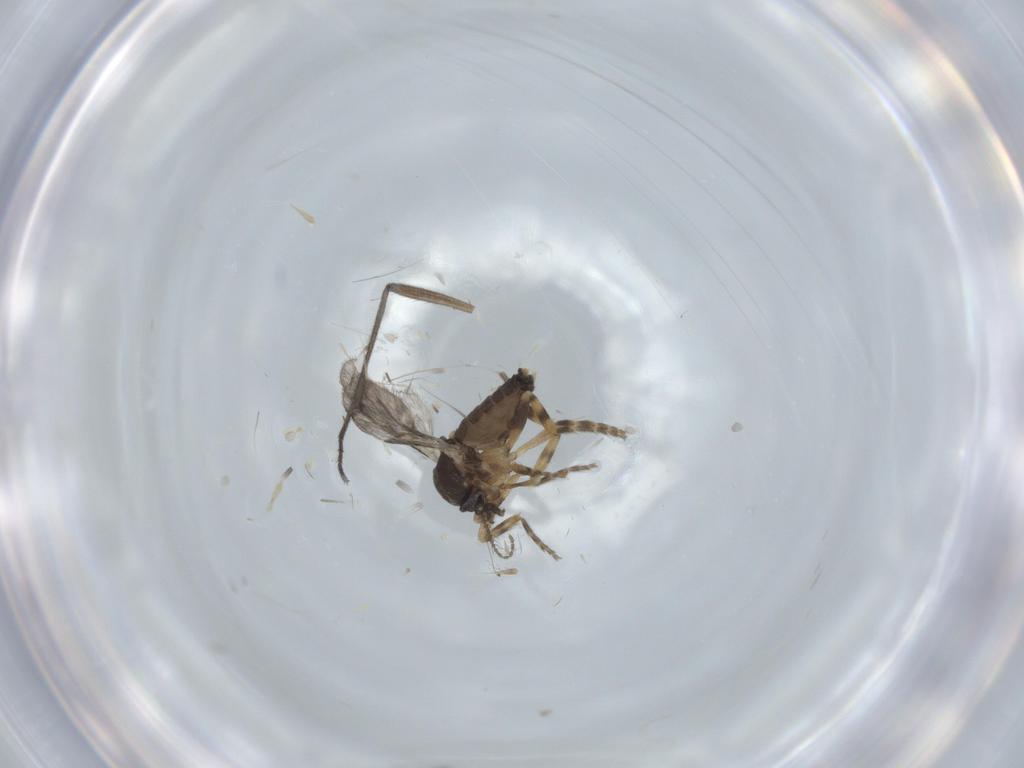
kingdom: Animalia
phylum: Arthropoda
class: Insecta
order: Diptera
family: Sciaridae
